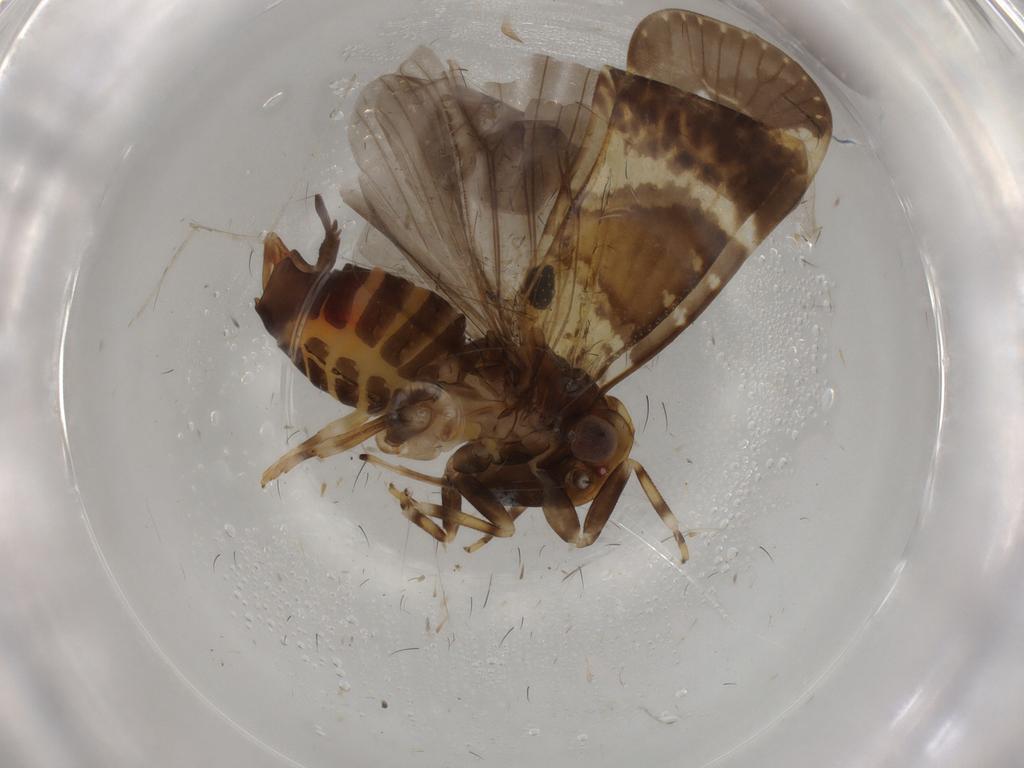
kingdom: Animalia
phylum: Arthropoda
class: Insecta
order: Hemiptera
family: Cixiidae
